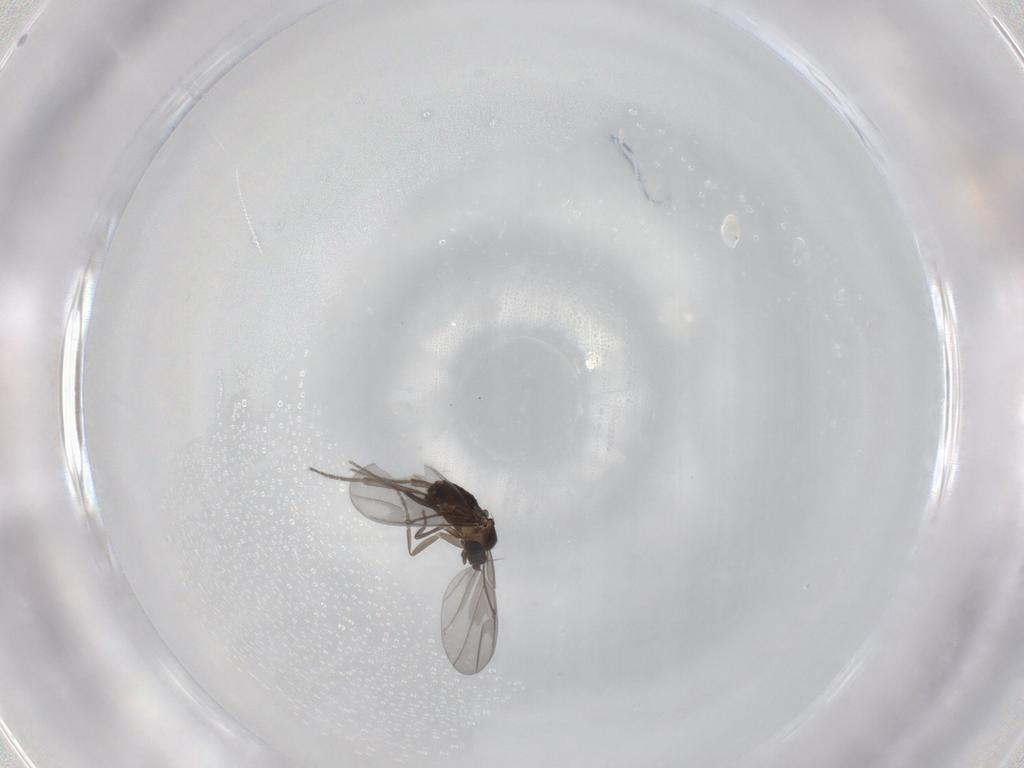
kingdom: Animalia
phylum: Arthropoda
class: Insecta
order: Diptera
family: Phoridae
